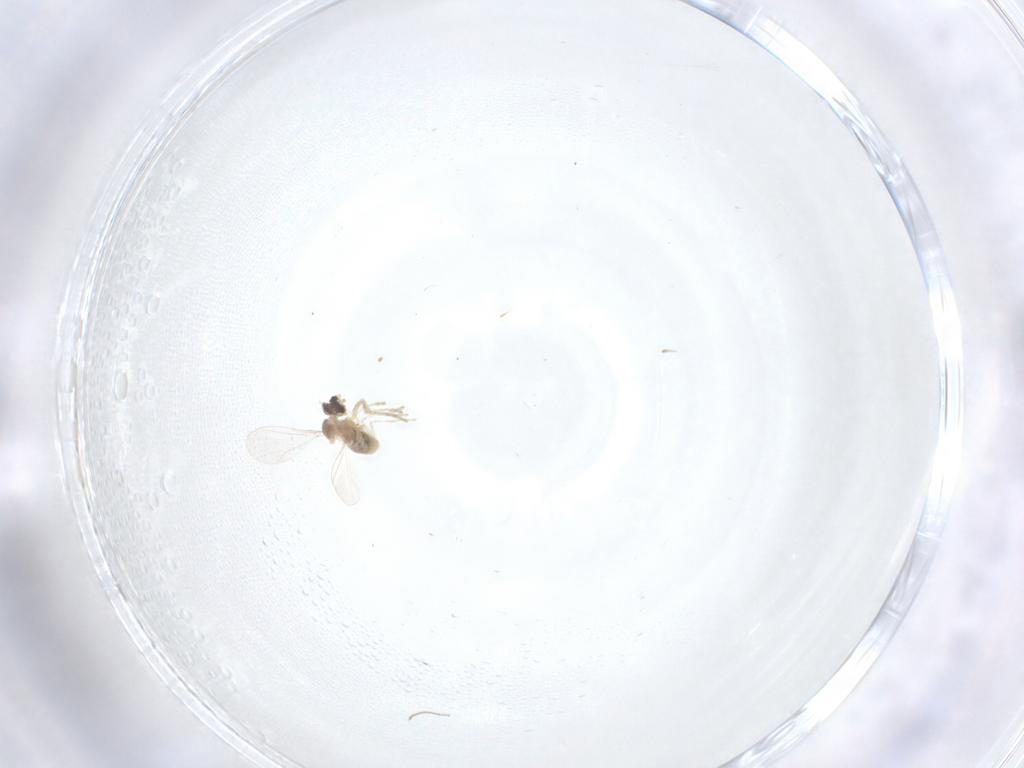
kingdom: Animalia
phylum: Arthropoda
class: Insecta
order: Diptera
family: Cecidomyiidae
